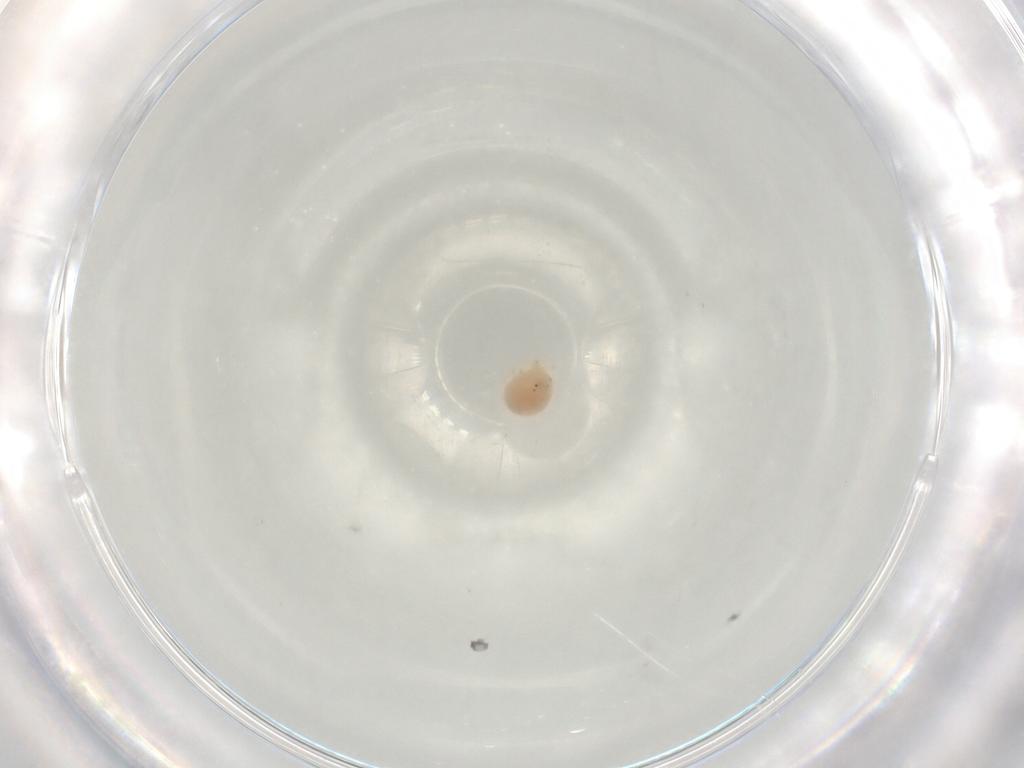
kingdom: Animalia
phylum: Arthropoda
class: Arachnida
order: Trombidiformes
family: Hydryphantidae
